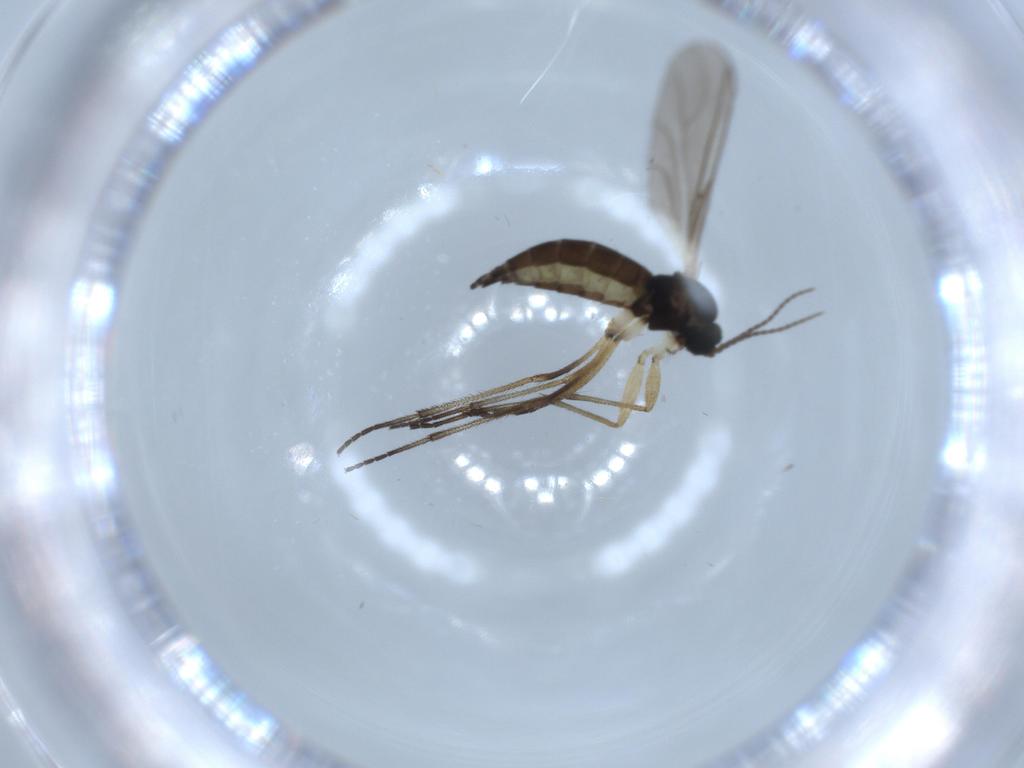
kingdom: Animalia
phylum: Arthropoda
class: Insecta
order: Diptera
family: Sciaridae
